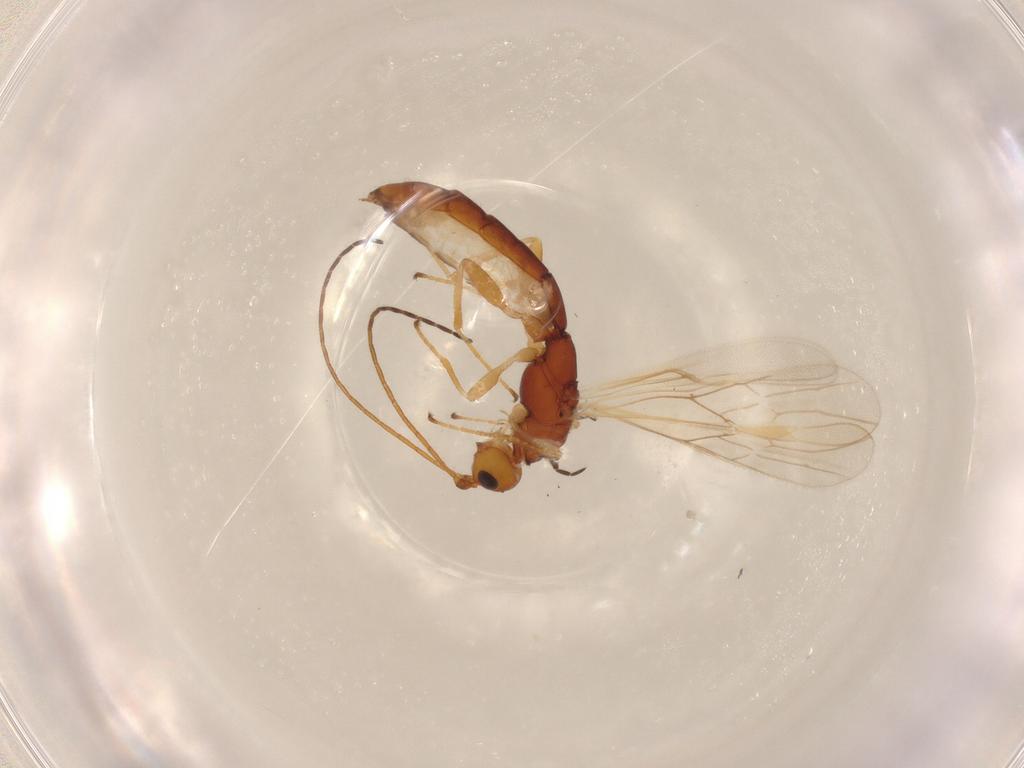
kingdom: Animalia
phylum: Arthropoda
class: Insecta
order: Hymenoptera
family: Braconidae
